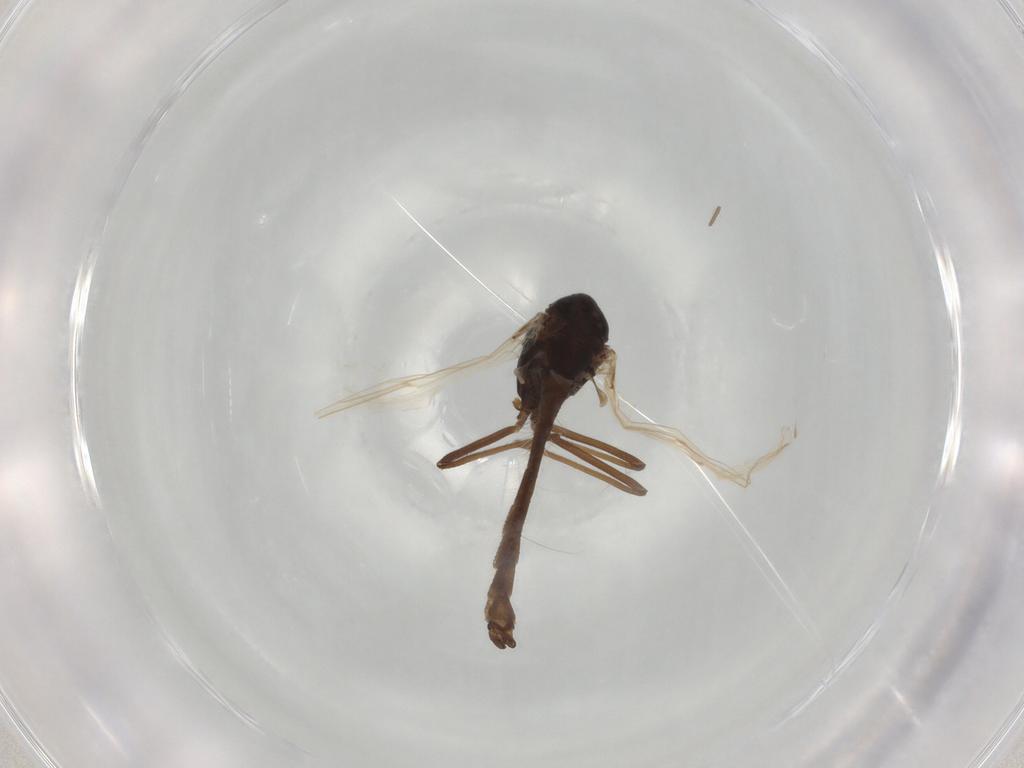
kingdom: Animalia
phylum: Arthropoda
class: Insecta
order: Diptera
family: Chironomidae
